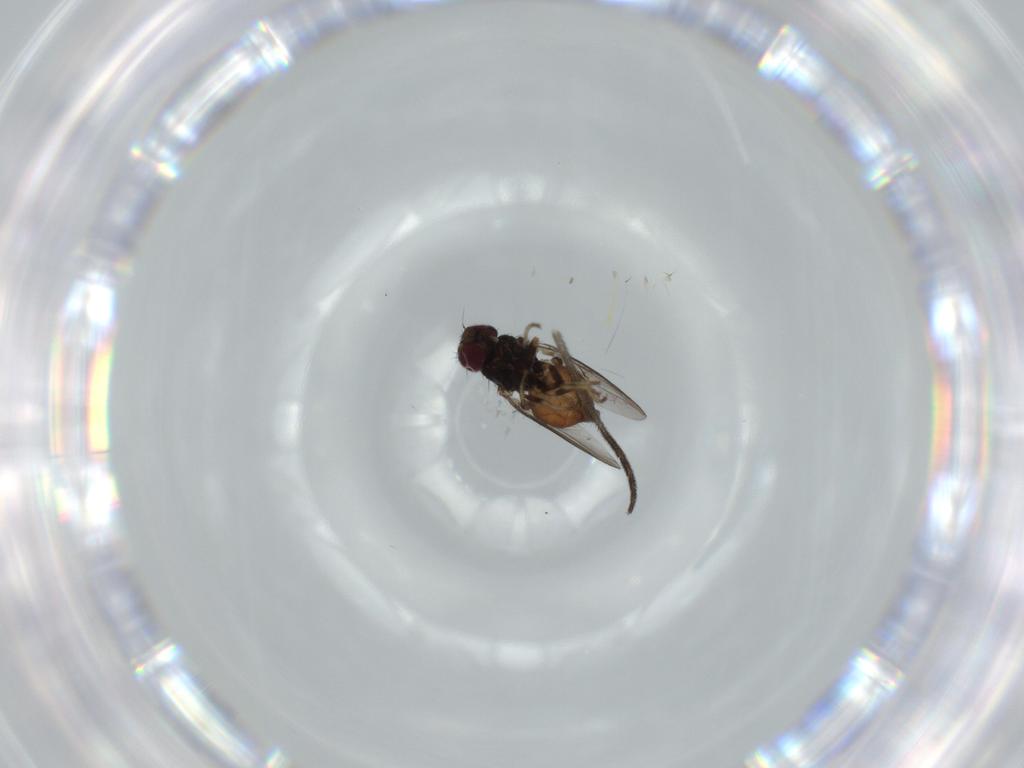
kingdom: Animalia
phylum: Arthropoda
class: Insecta
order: Diptera
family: Chloropidae
